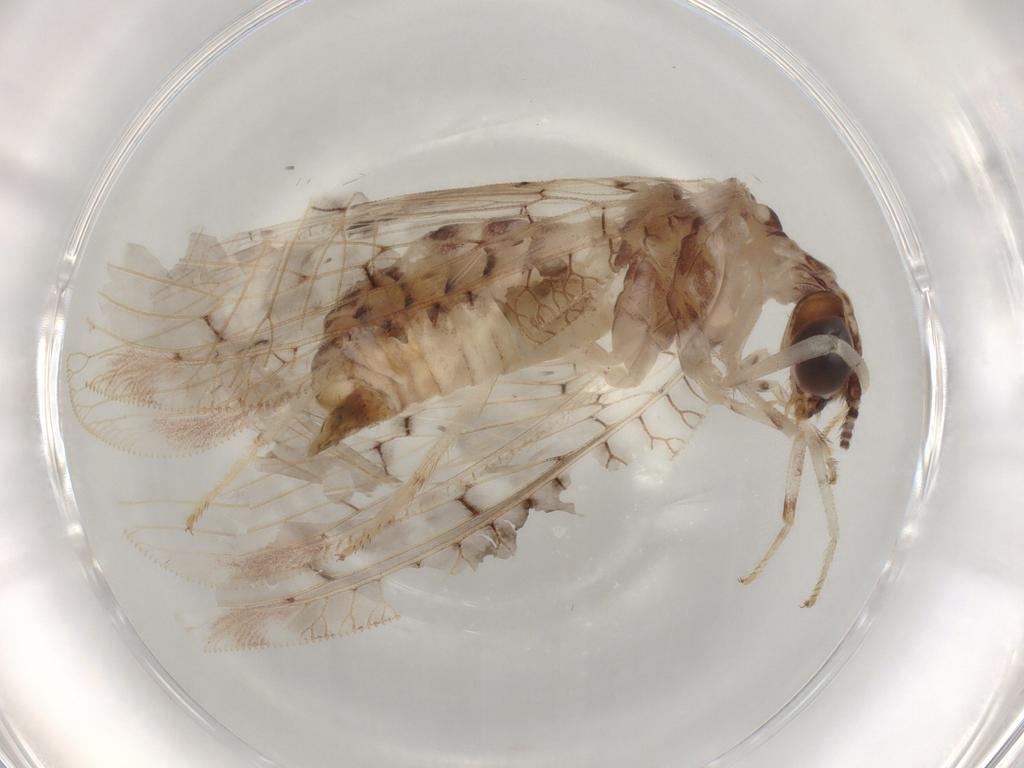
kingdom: Animalia
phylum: Arthropoda
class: Insecta
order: Neuroptera
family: Berothidae
